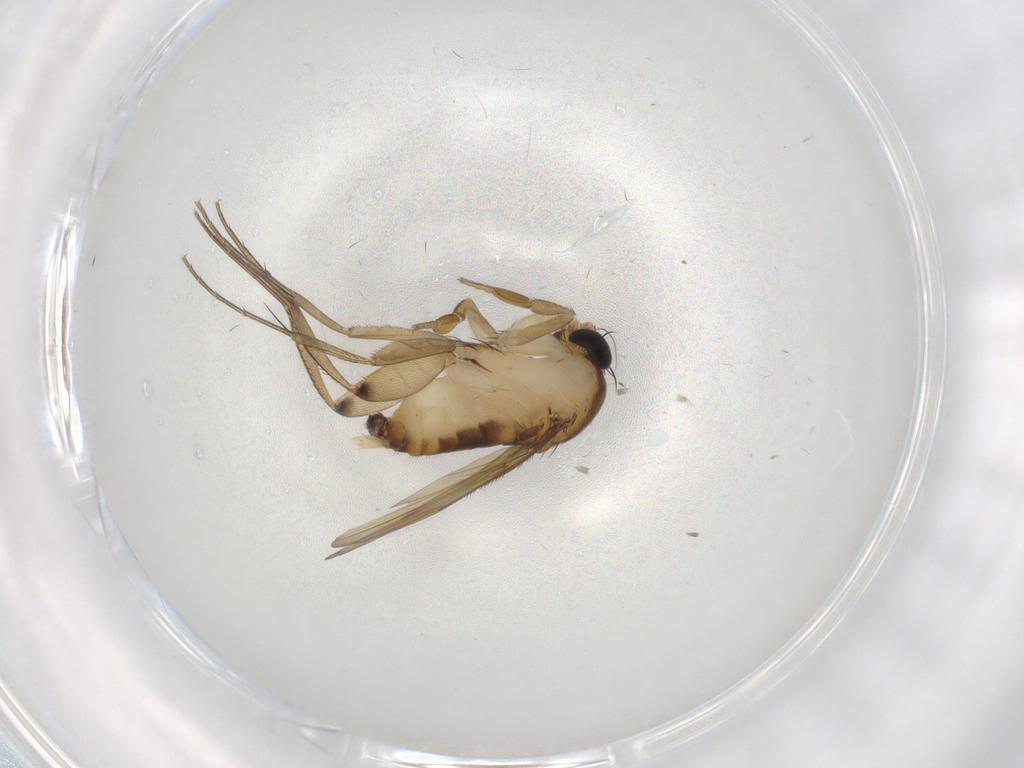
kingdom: Animalia
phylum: Arthropoda
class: Insecta
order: Diptera
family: Phoridae
